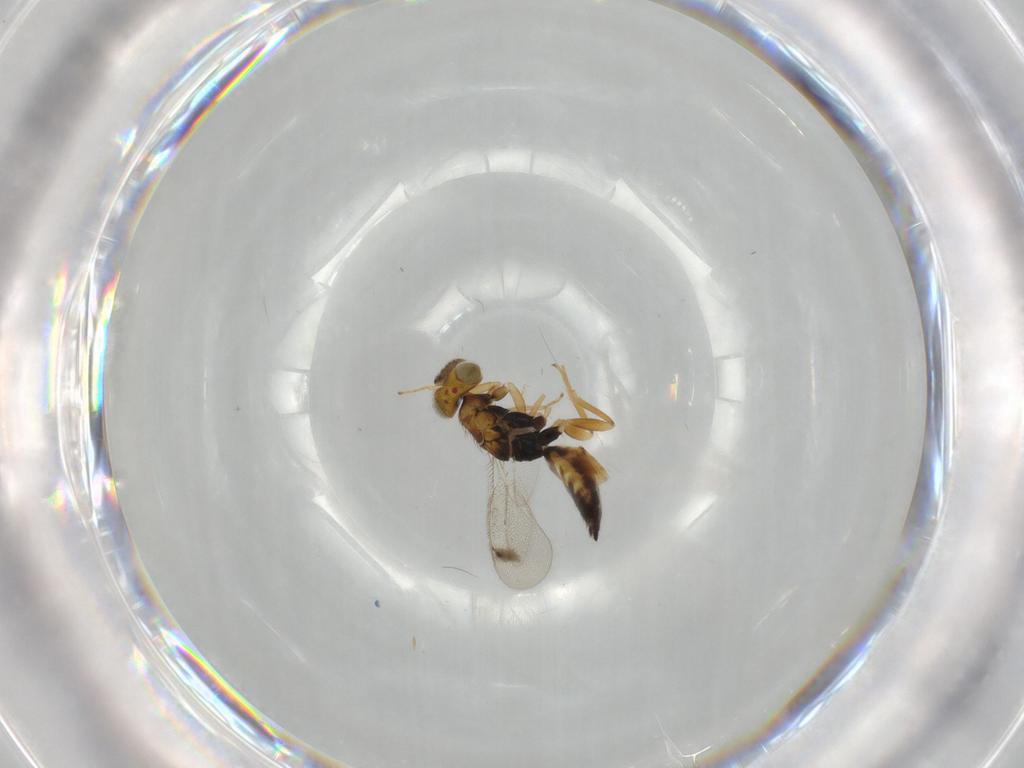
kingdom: Animalia
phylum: Arthropoda
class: Insecta
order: Hymenoptera
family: Eulophidae
